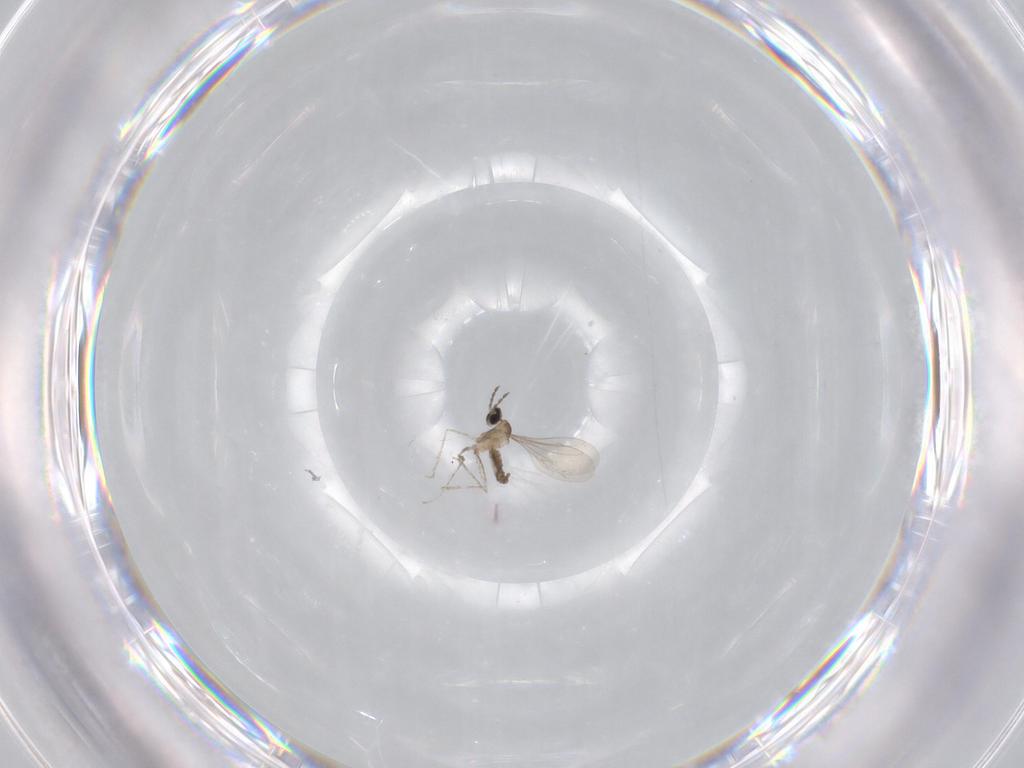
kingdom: Animalia
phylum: Arthropoda
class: Insecta
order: Diptera
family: Cecidomyiidae
